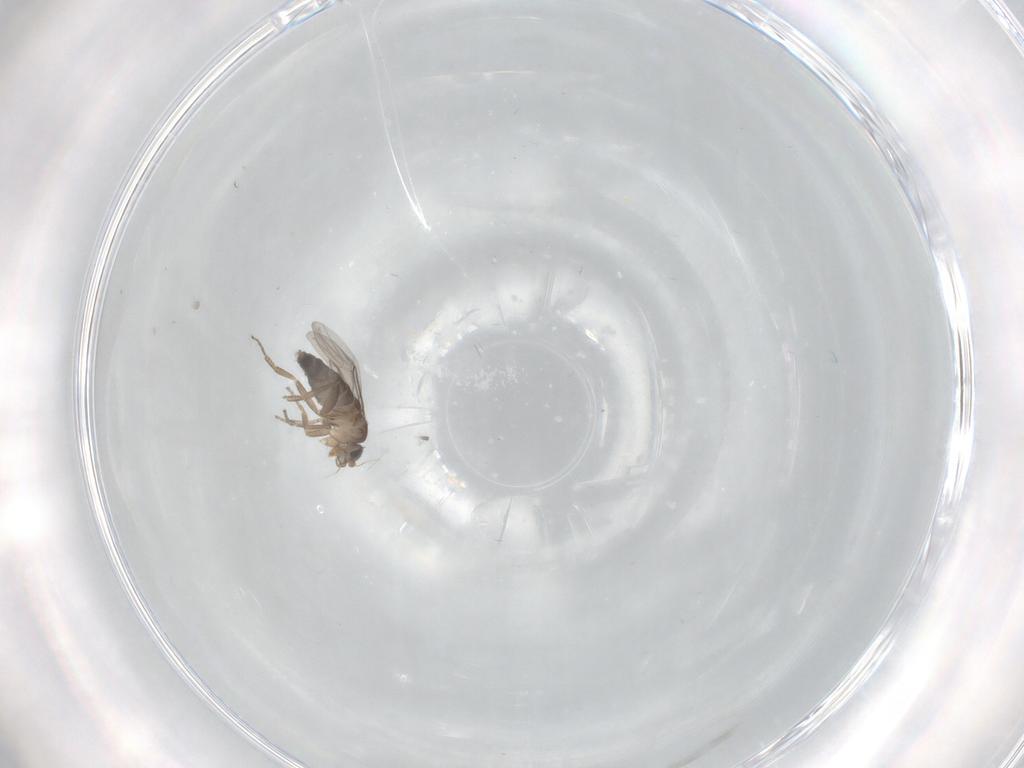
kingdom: Animalia
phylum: Arthropoda
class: Insecta
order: Diptera
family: Phoridae
